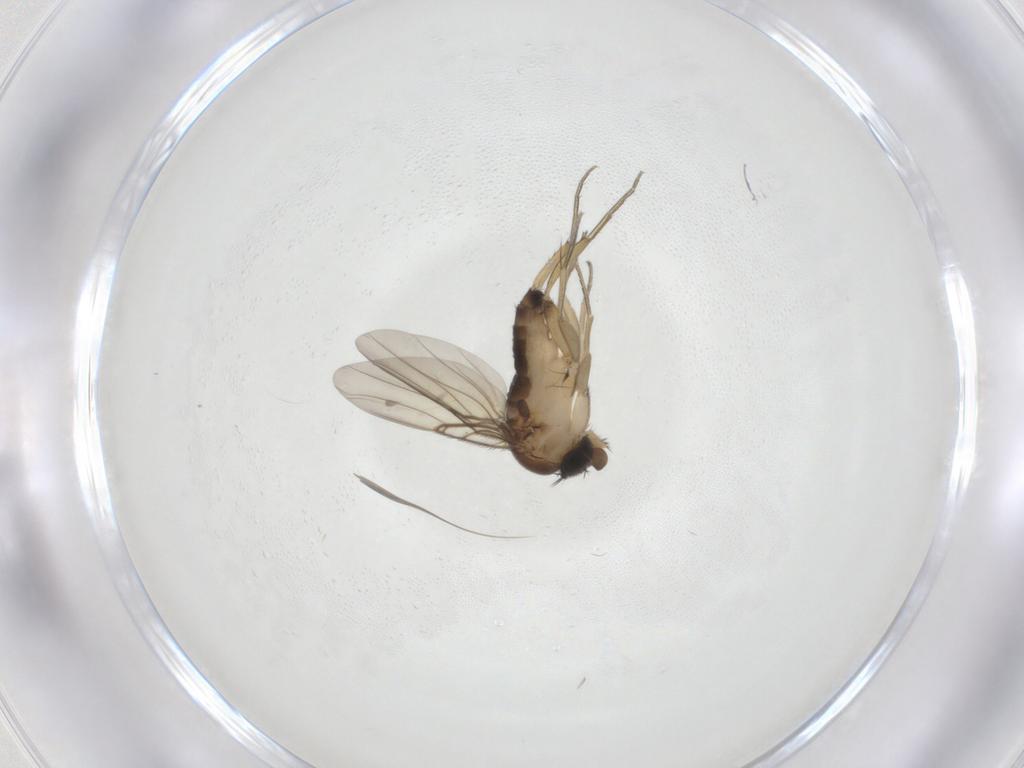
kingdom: Animalia
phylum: Arthropoda
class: Insecta
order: Diptera
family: Phoridae
